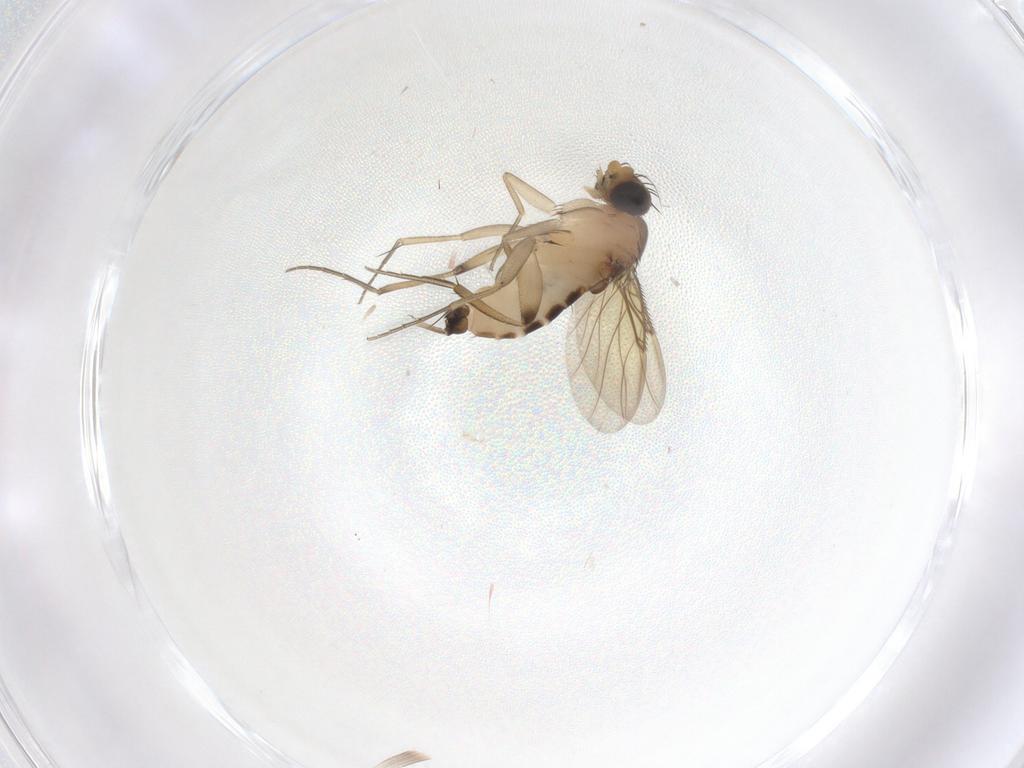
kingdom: Animalia
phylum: Arthropoda
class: Insecta
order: Diptera
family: Phoridae
